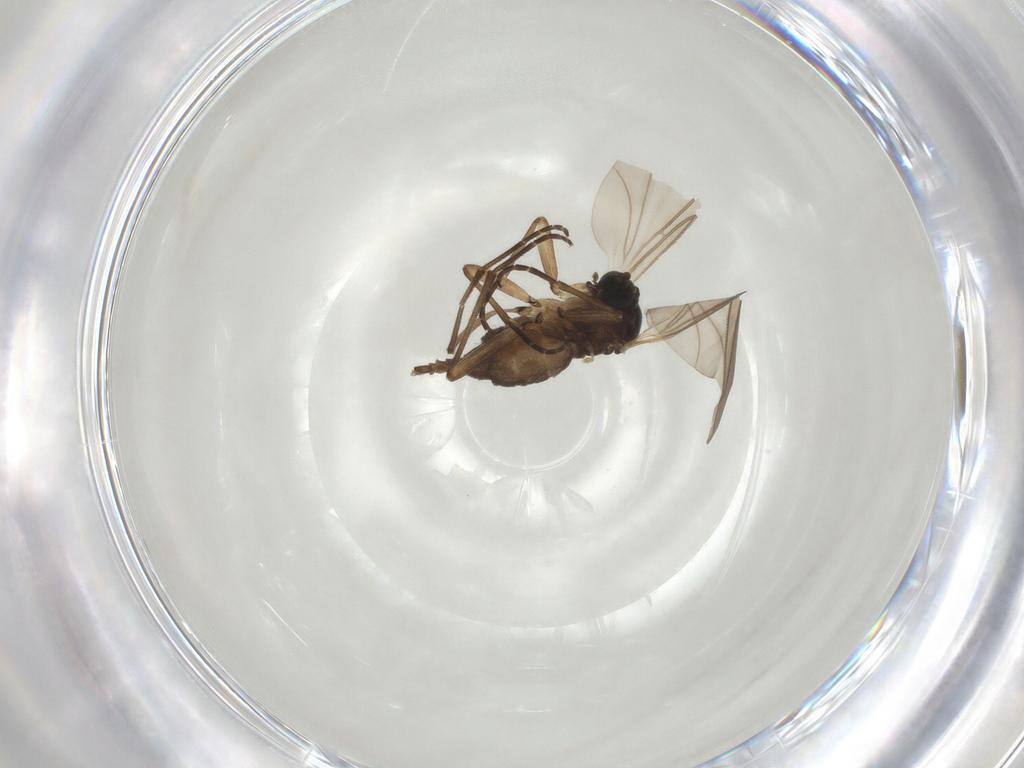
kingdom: Animalia
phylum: Arthropoda
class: Insecta
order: Diptera
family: Sciaridae
